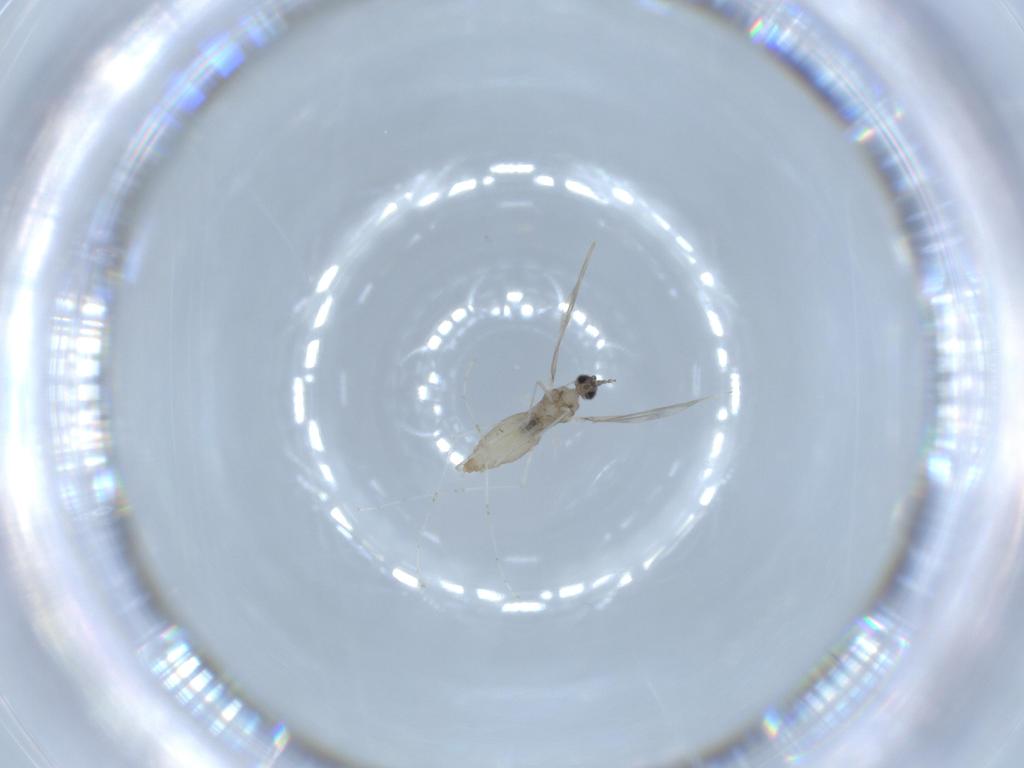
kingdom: Animalia
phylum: Arthropoda
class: Insecta
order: Diptera
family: Cecidomyiidae
